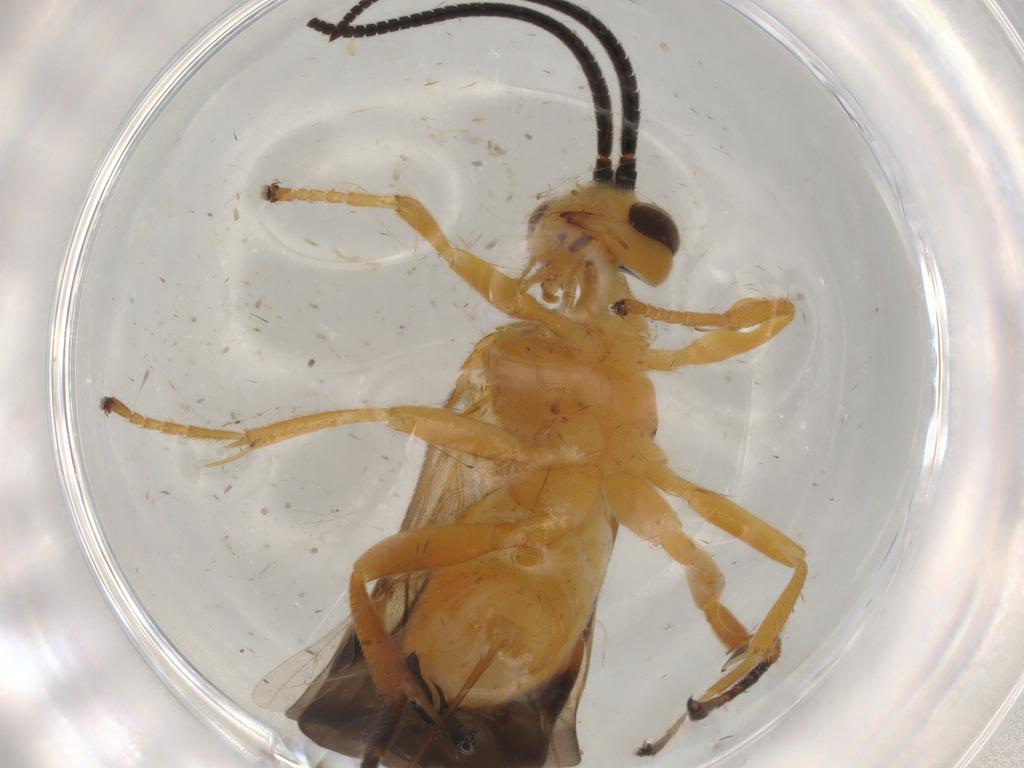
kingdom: Animalia
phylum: Arthropoda
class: Insecta
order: Hymenoptera
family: Braconidae
